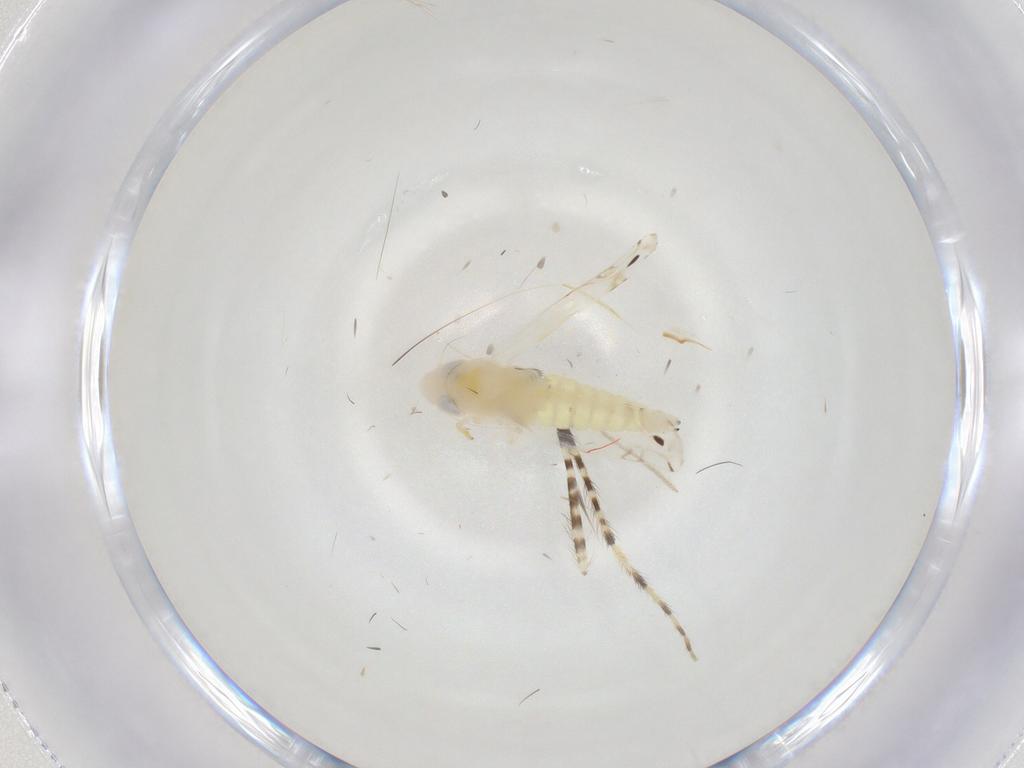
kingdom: Animalia
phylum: Arthropoda
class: Insecta
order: Hemiptera
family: Cicadellidae
